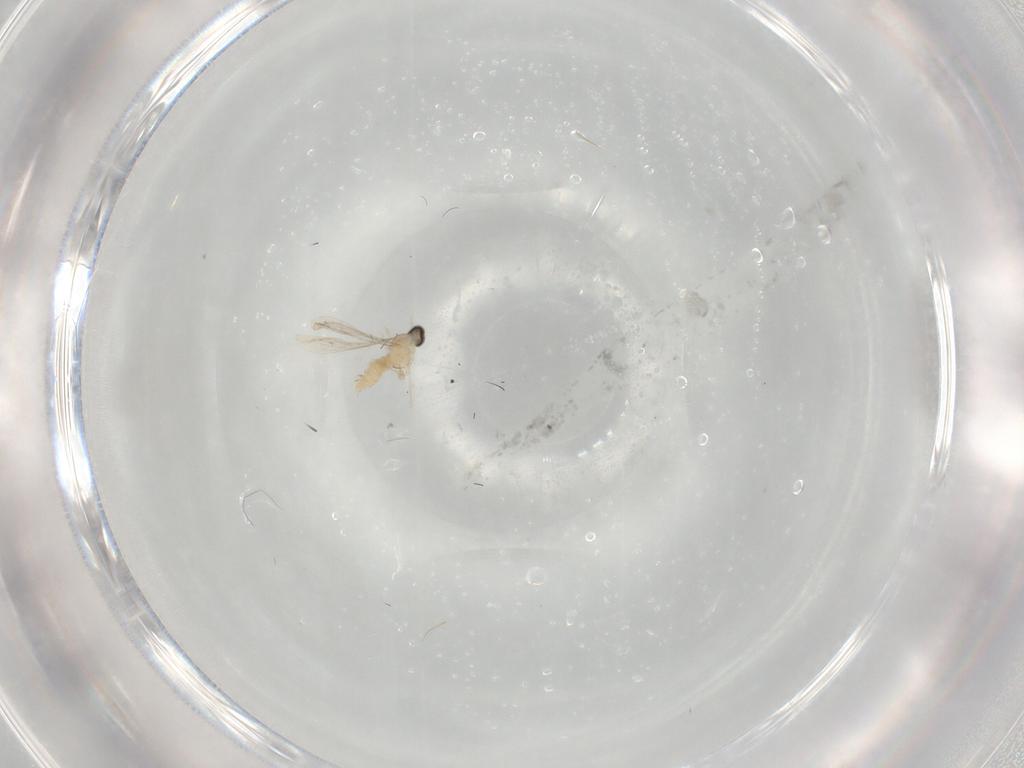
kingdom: Animalia
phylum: Arthropoda
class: Insecta
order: Diptera
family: Cecidomyiidae
